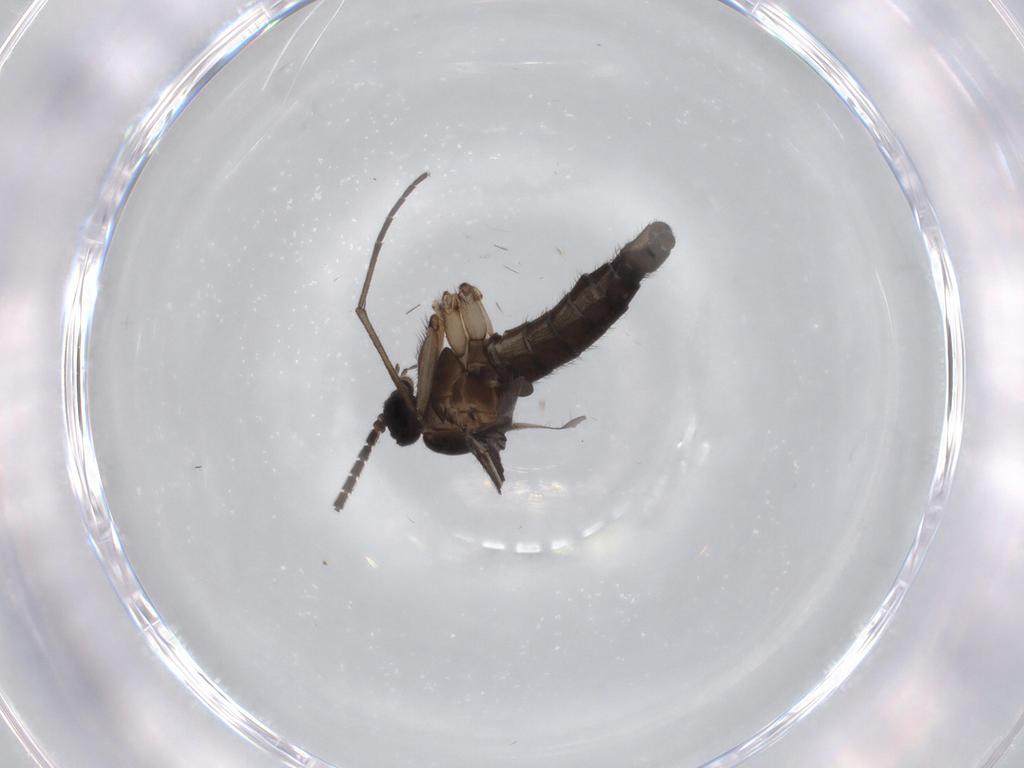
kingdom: Animalia
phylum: Arthropoda
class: Insecta
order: Diptera
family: Sciaridae
